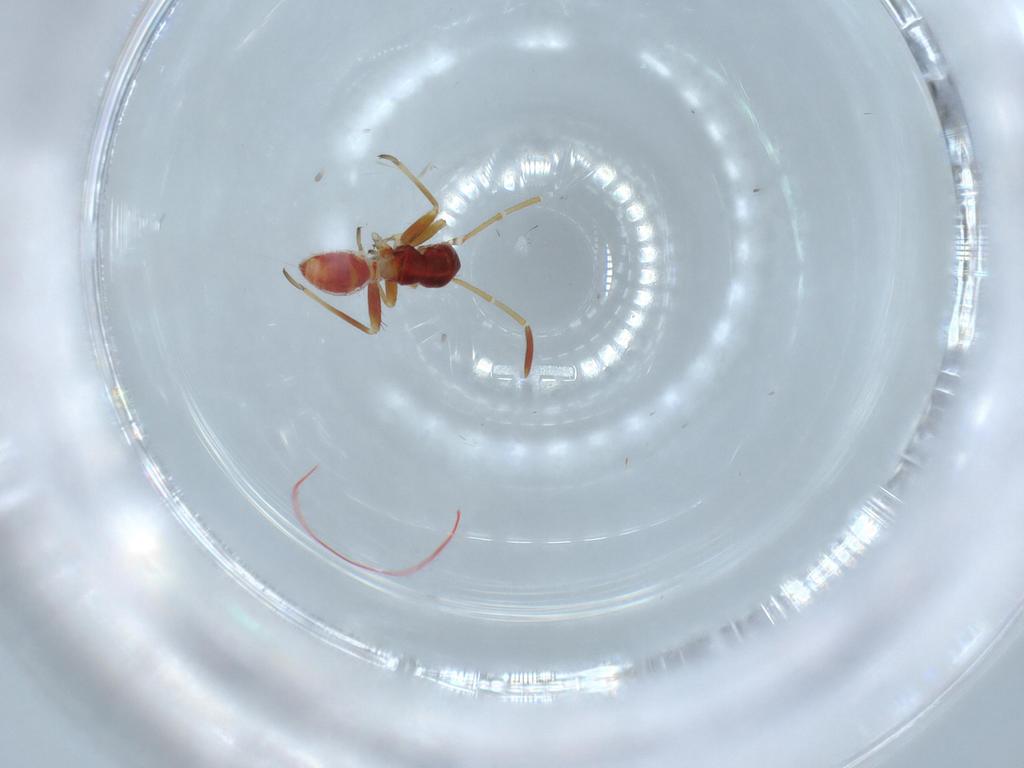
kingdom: Animalia
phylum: Arthropoda
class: Insecta
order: Hemiptera
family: Miridae
